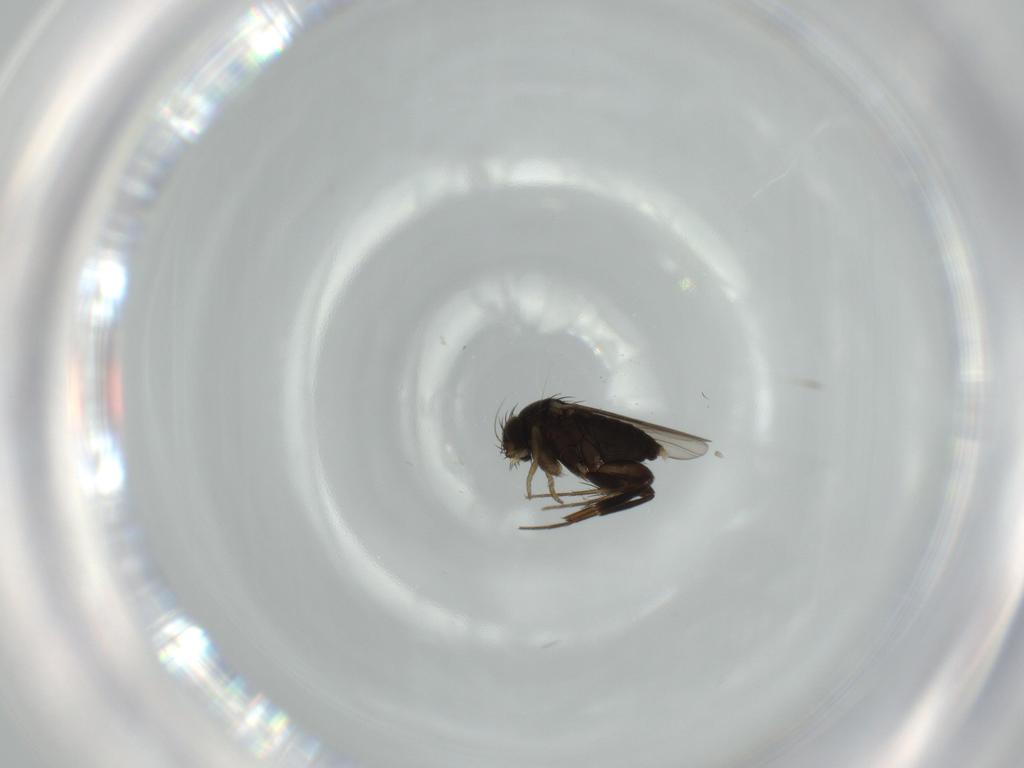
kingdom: Animalia
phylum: Arthropoda
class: Insecta
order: Diptera
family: Phoridae
